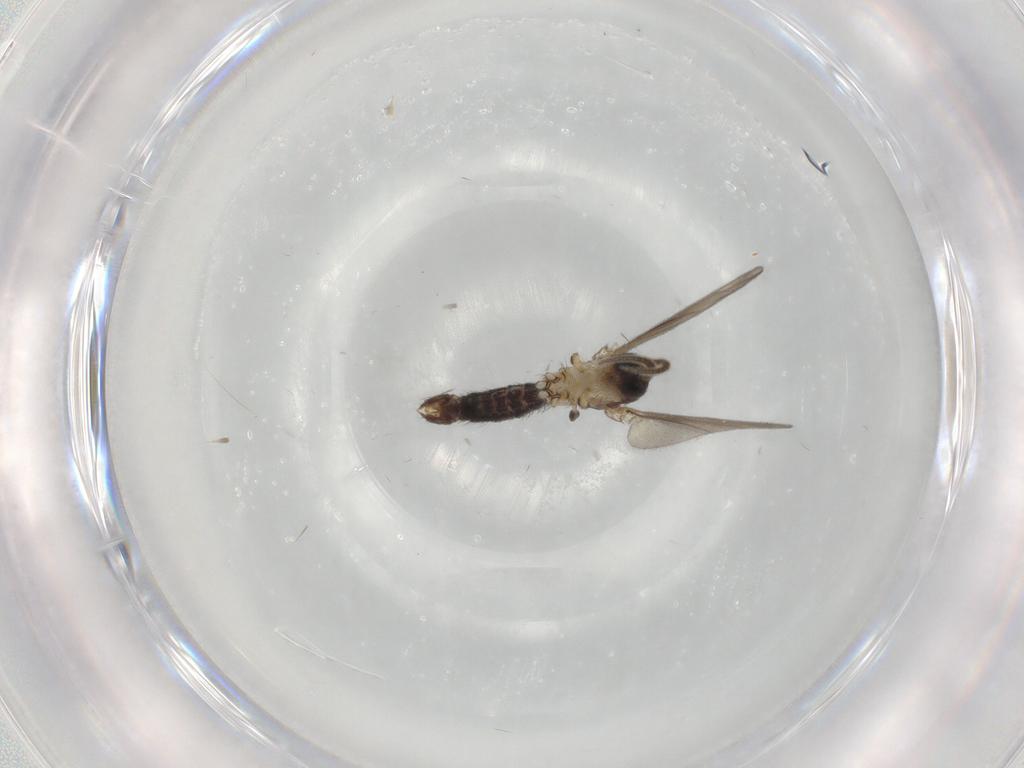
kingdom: Animalia
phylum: Arthropoda
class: Insecta
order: Diptera
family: Mycetophilidae
